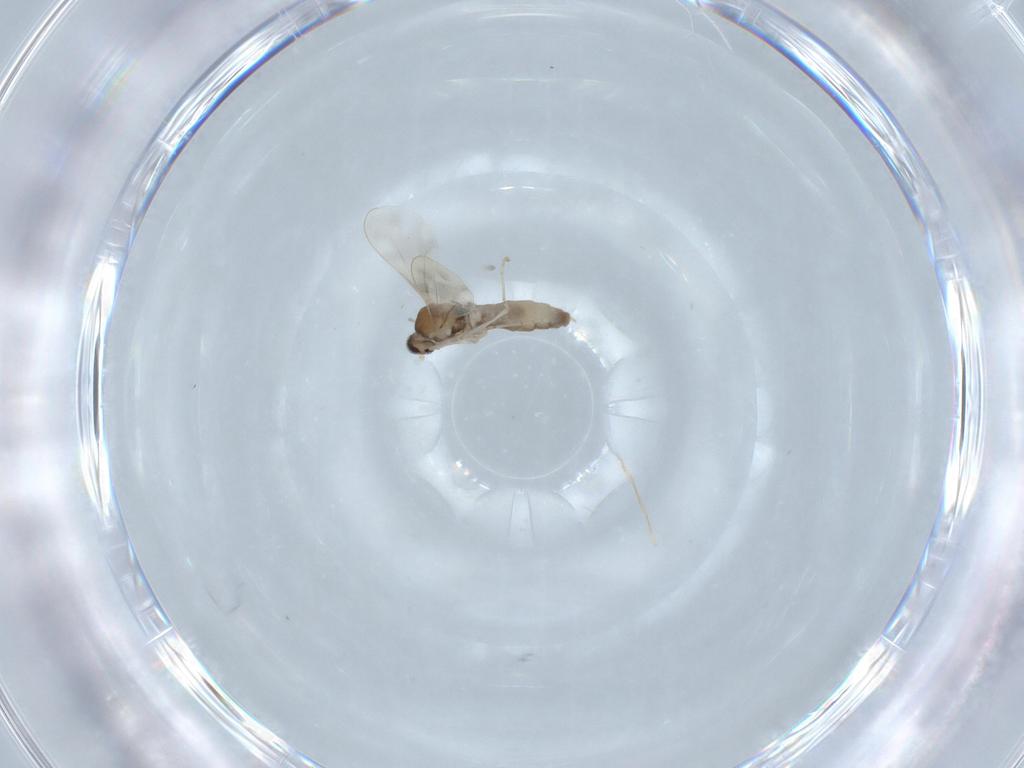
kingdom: Animalia
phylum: Arthropoda
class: Insecta
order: Diptera
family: Cecidomyiidae
